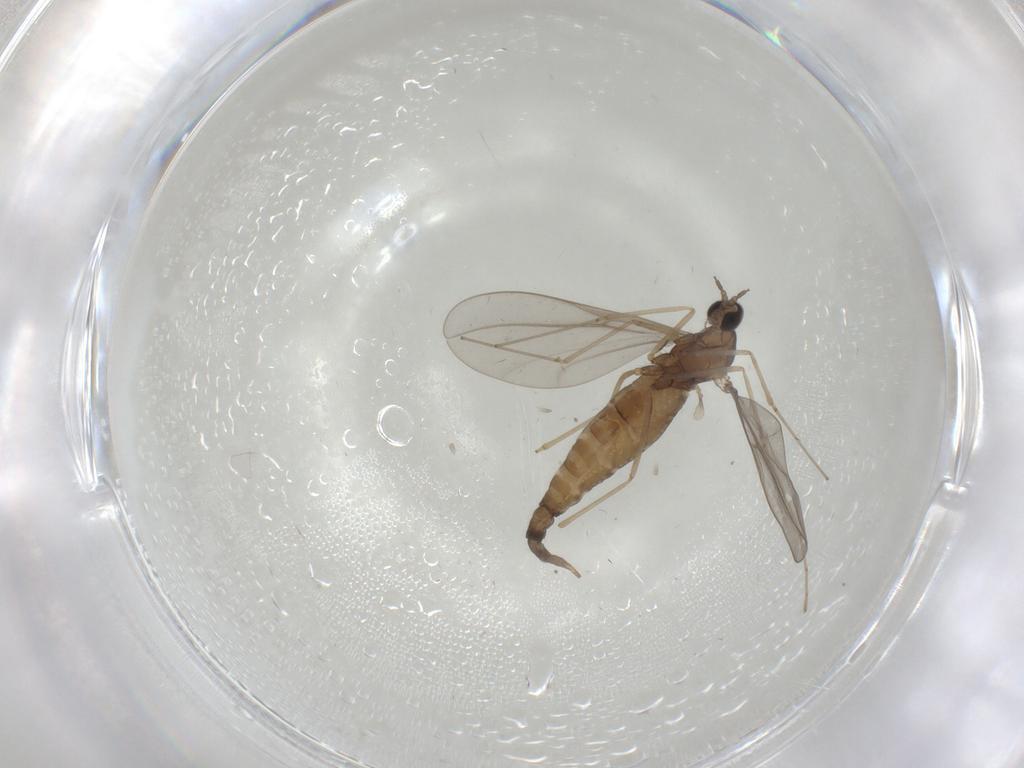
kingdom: Animalia
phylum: Arthropoda
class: Insecta
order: Diptera
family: Cecidomyiidae
